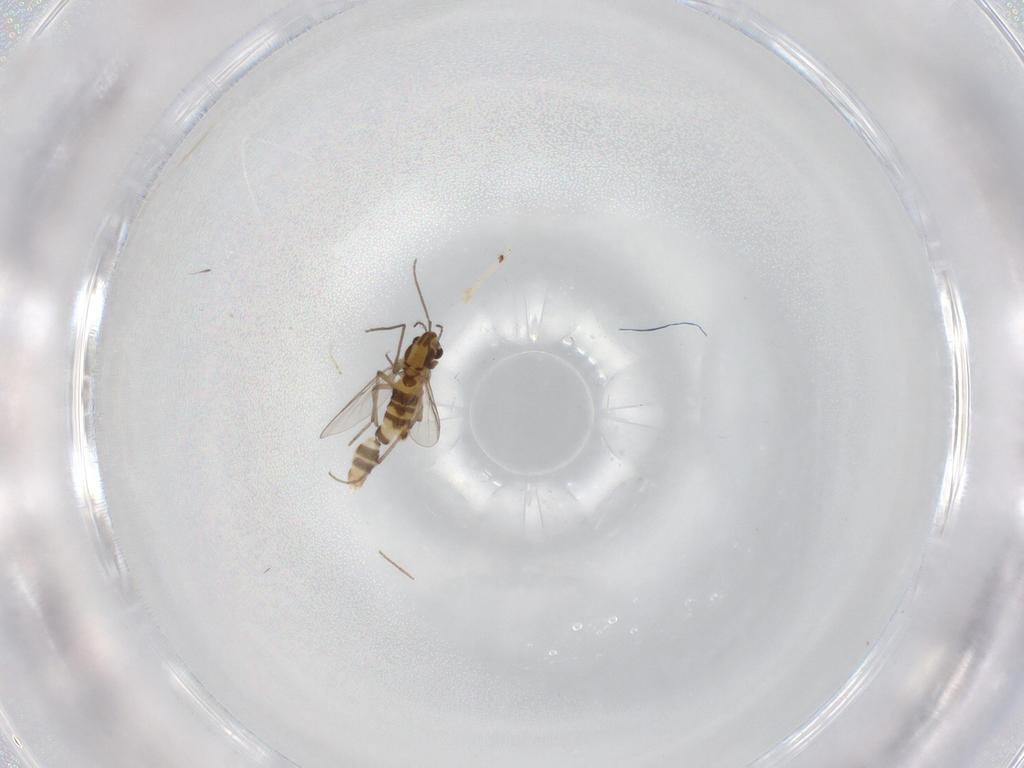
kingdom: Animalia
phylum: Arthropoda
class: Insecta
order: Diptera
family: Chironomidae
